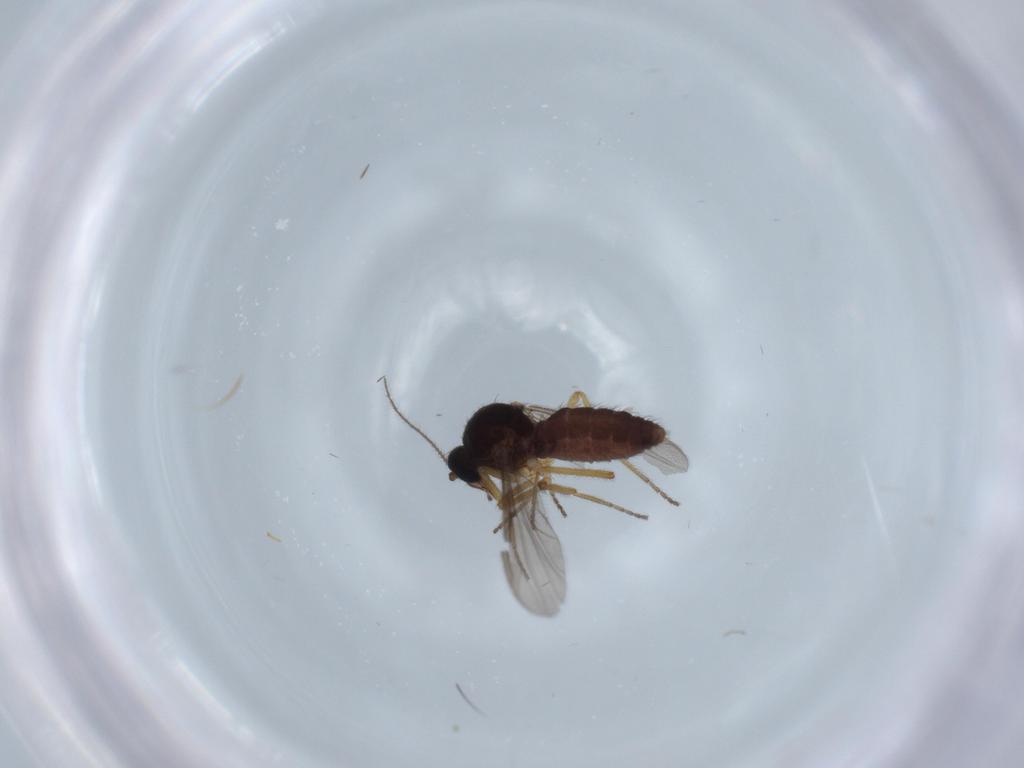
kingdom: Animalia
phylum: Arthropoda
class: Insecta
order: Diptera
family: Ceratopogonidae
